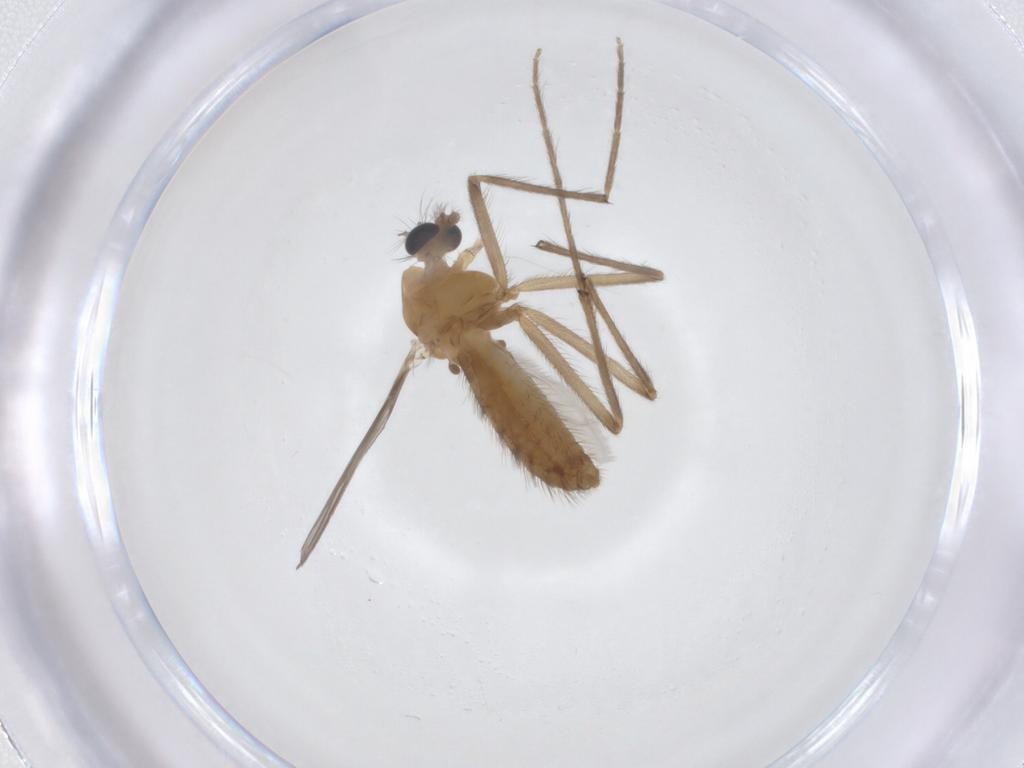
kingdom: Animalia
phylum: Arthropoda
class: Insecta
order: Diptera
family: Chironomidae
